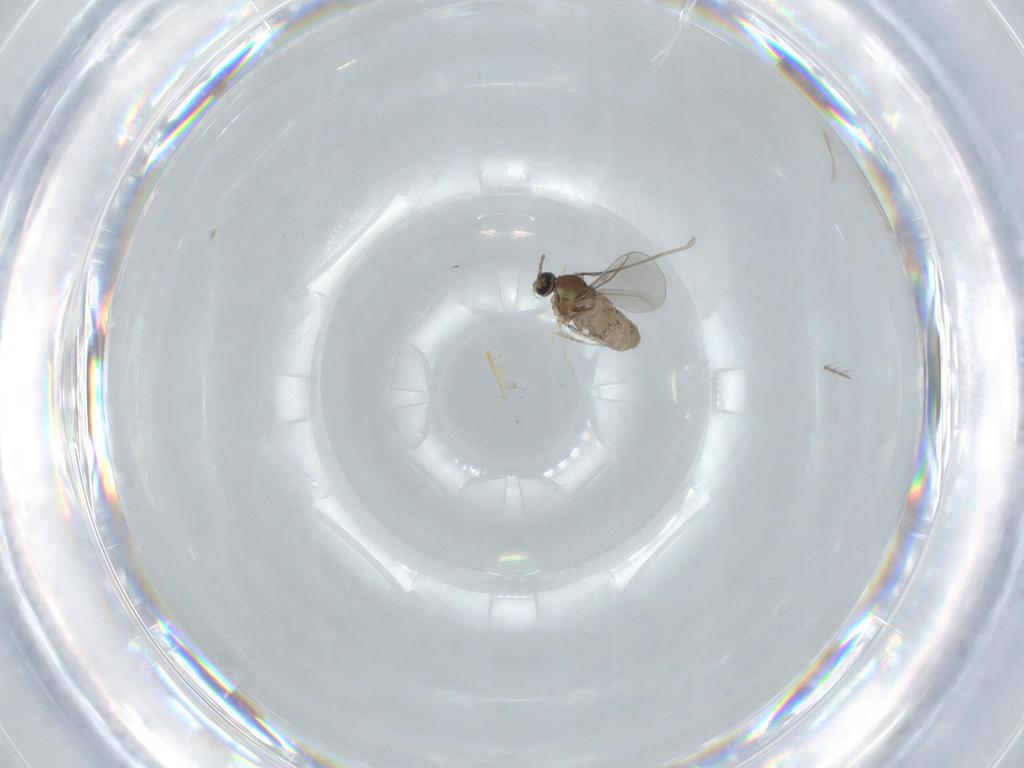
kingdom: Animalia
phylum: Arthropoda
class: Insecta
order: Diptera
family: Cecidomyiidae
